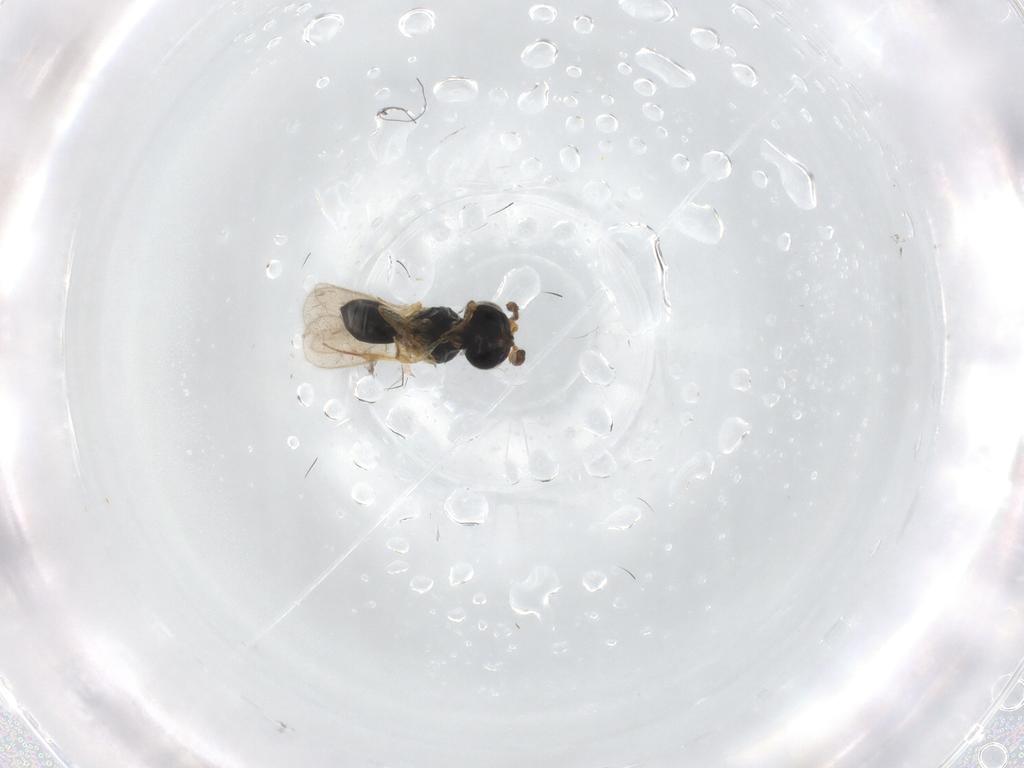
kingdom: Animalia
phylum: Arthropoda
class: Insecta
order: Hymenoptera
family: Scelionidae
